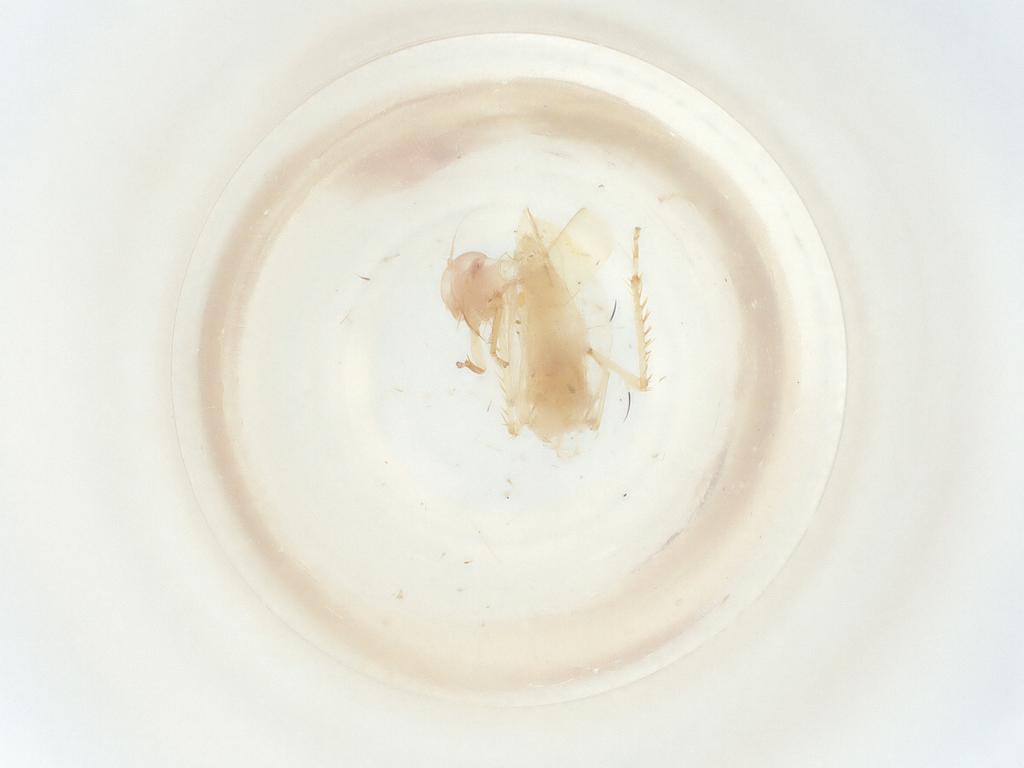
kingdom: Animalia
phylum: Arthropoda
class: Insecta
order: Hemiptera
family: Cicadellidae
